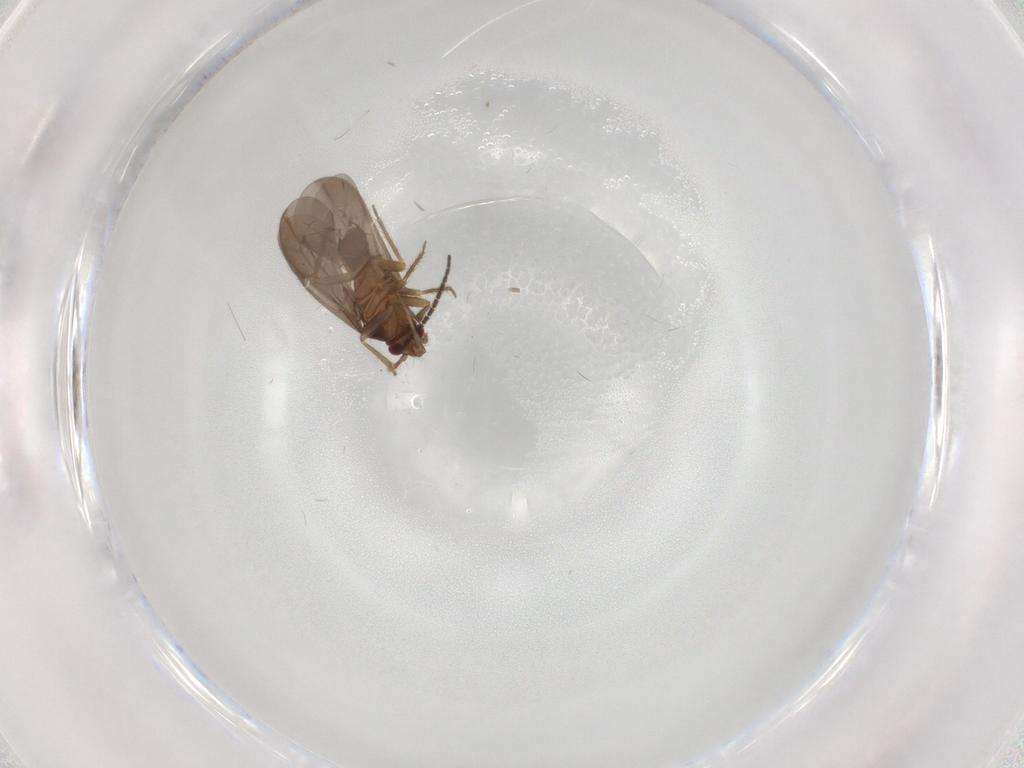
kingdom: Animalia
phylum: Arthropoda
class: Insecta
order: Hemiptera
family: Ceratocombidae
